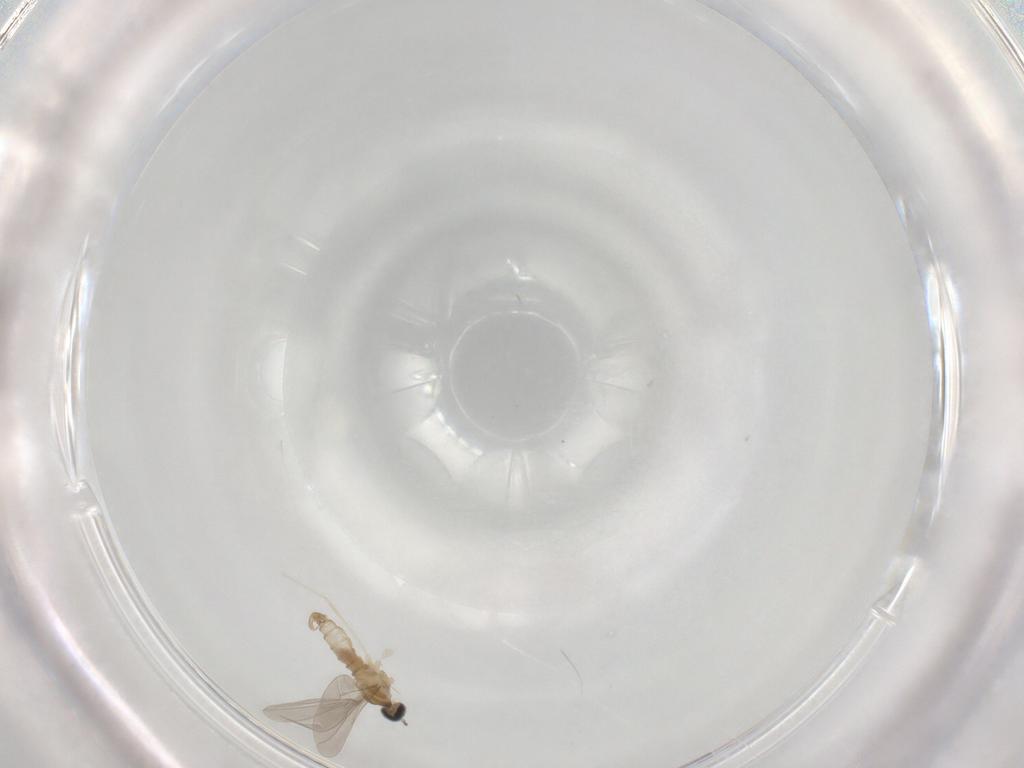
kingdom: Animalia
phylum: Arthropoda
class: Insecta
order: Diptera
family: Cecidomyiidae
